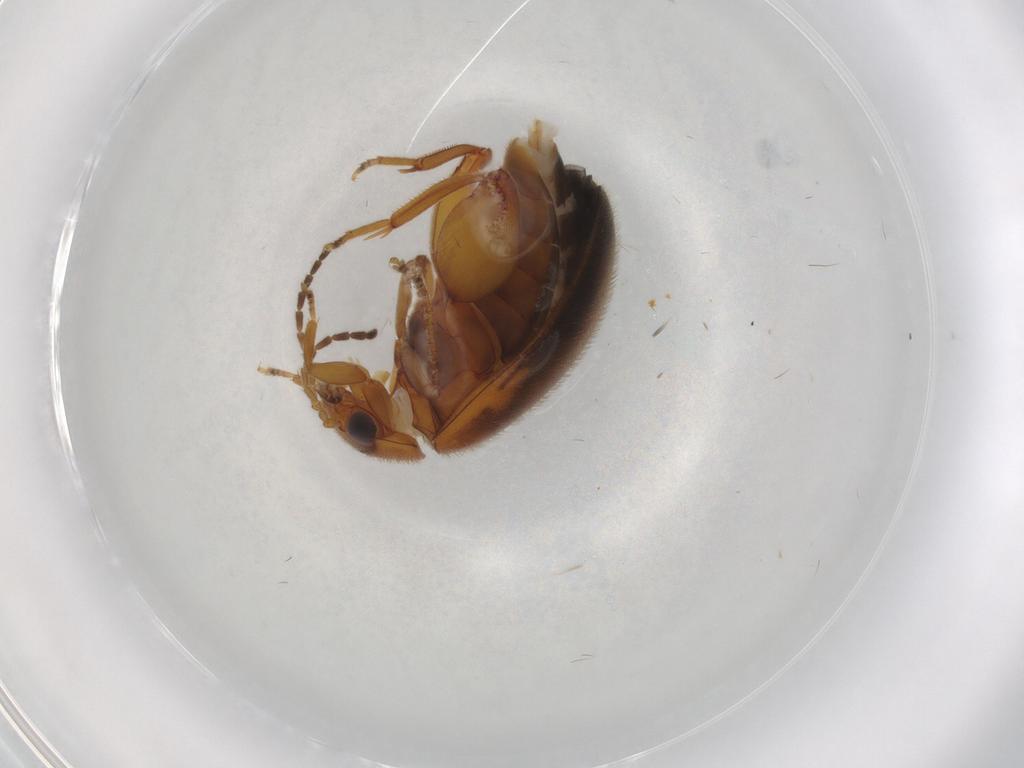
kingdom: Animalia
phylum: Arthropoda
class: Insecta
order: Coleoptera
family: Scirtidae
